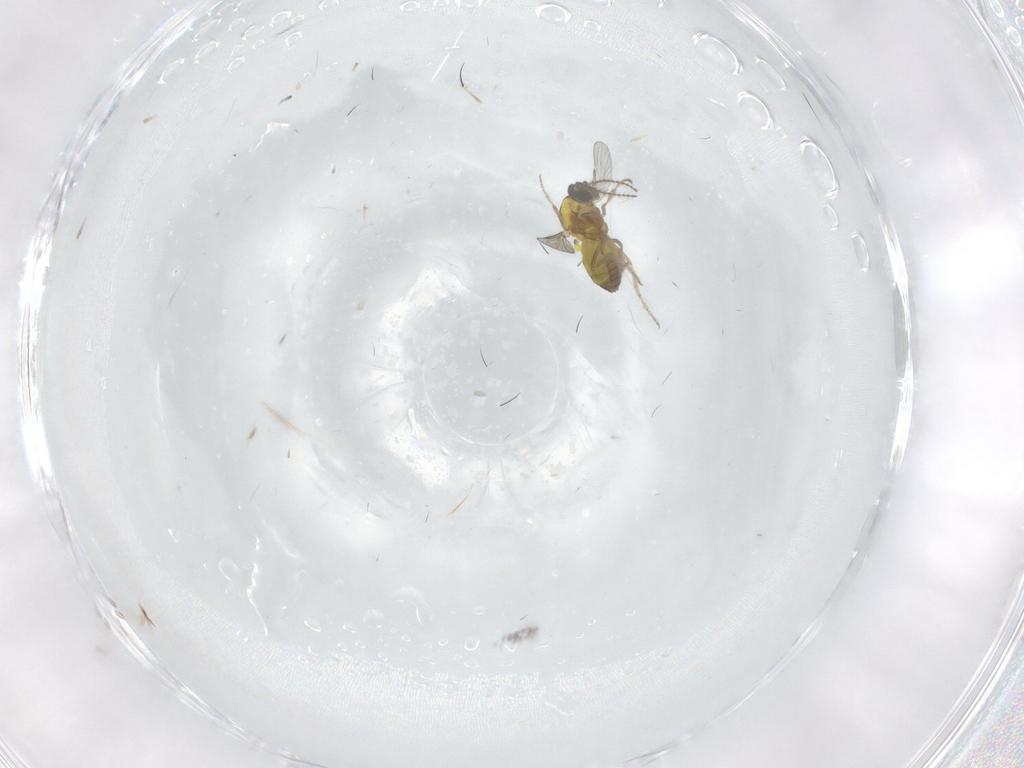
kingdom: Animalia
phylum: Arthropoda
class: Insecta
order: Diptera
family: Ceratopogonidae
